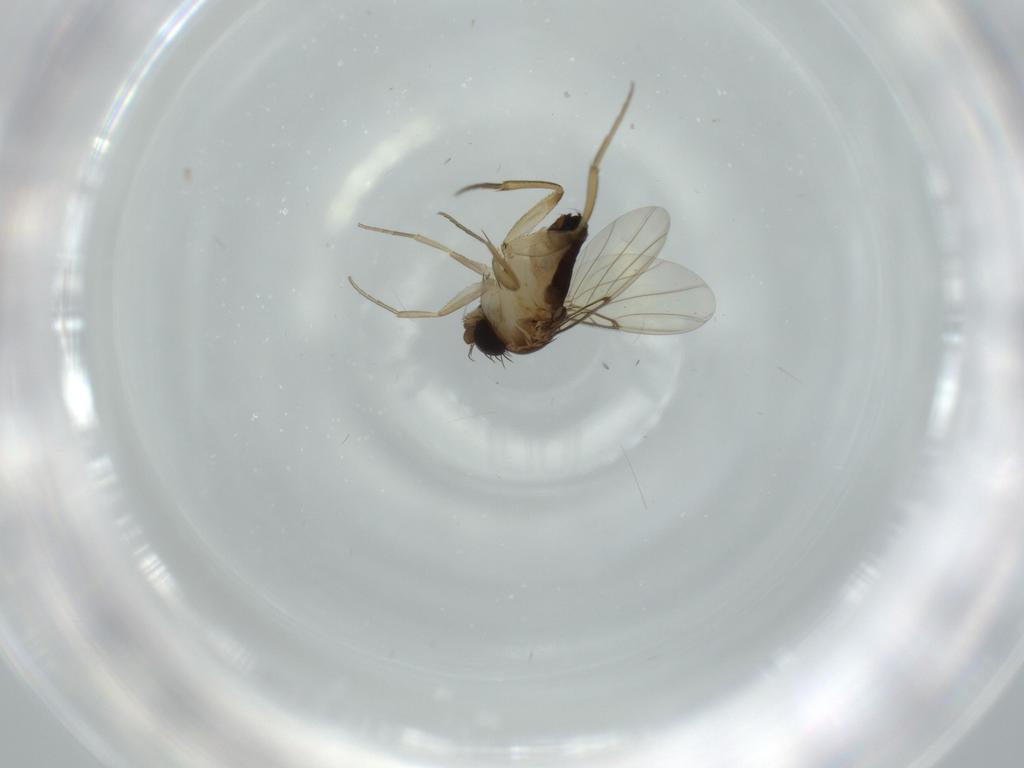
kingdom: Animalia
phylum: Arthropoda
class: Insecta
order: Diptera
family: Phoridae
